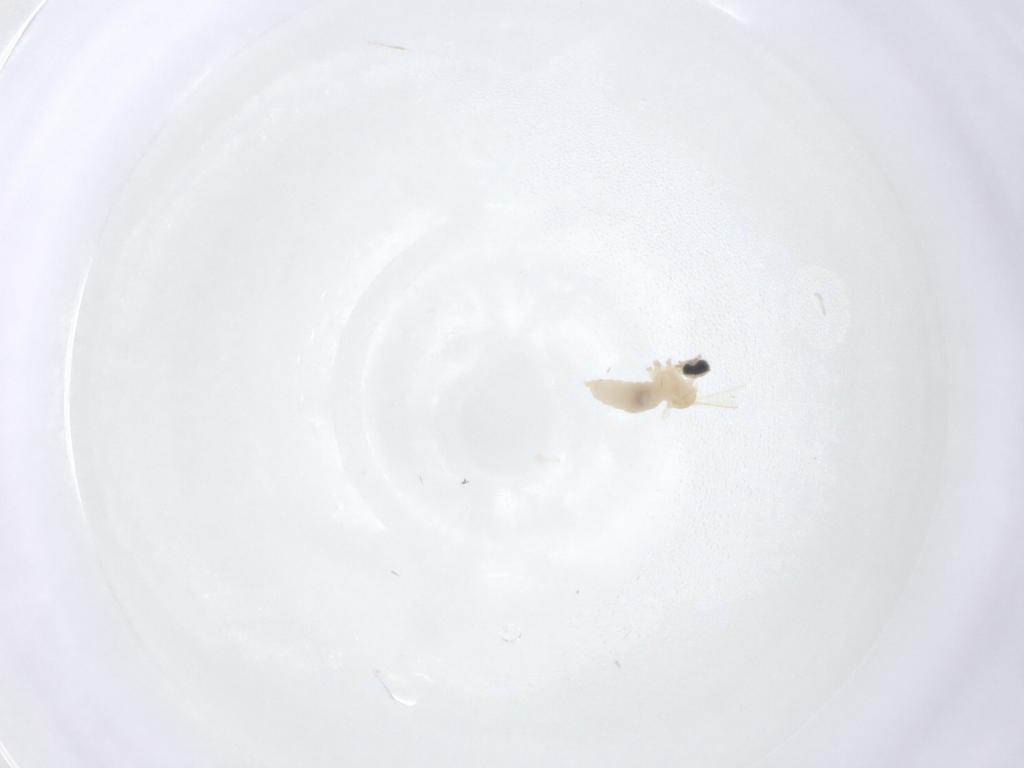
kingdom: Animalia
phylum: Arthropoda
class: Insecta
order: Diptera
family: Cecidomyiidae
